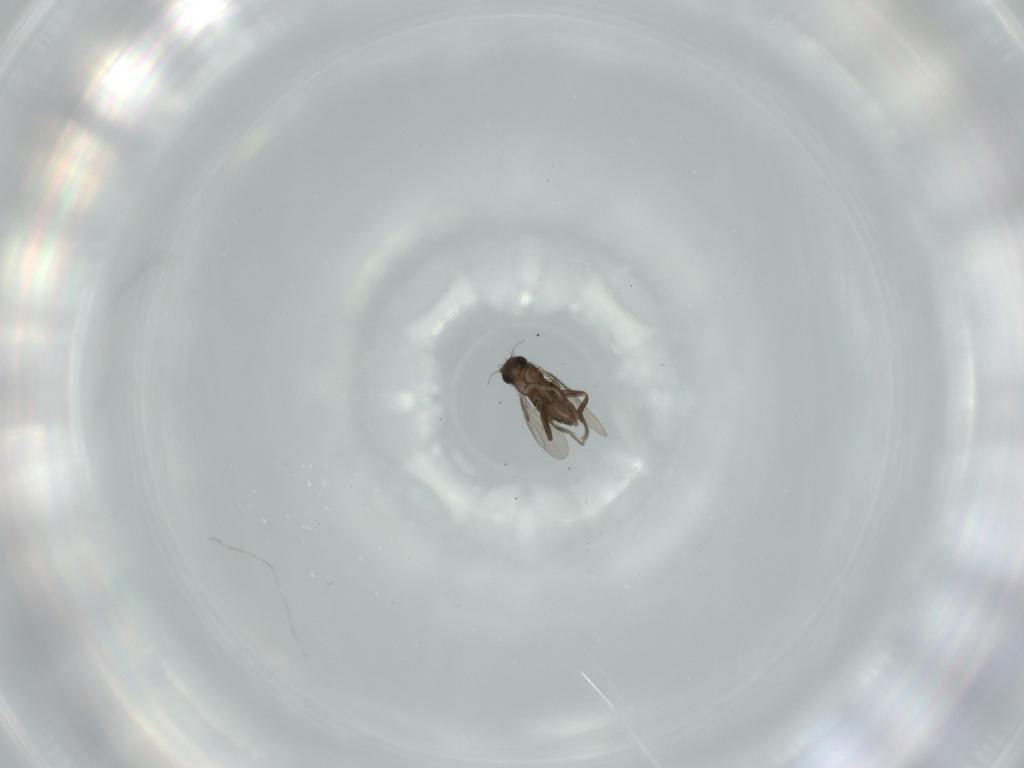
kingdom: Animalia
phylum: Arthropoda
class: Insecta
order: Diptera
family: Phoridae
